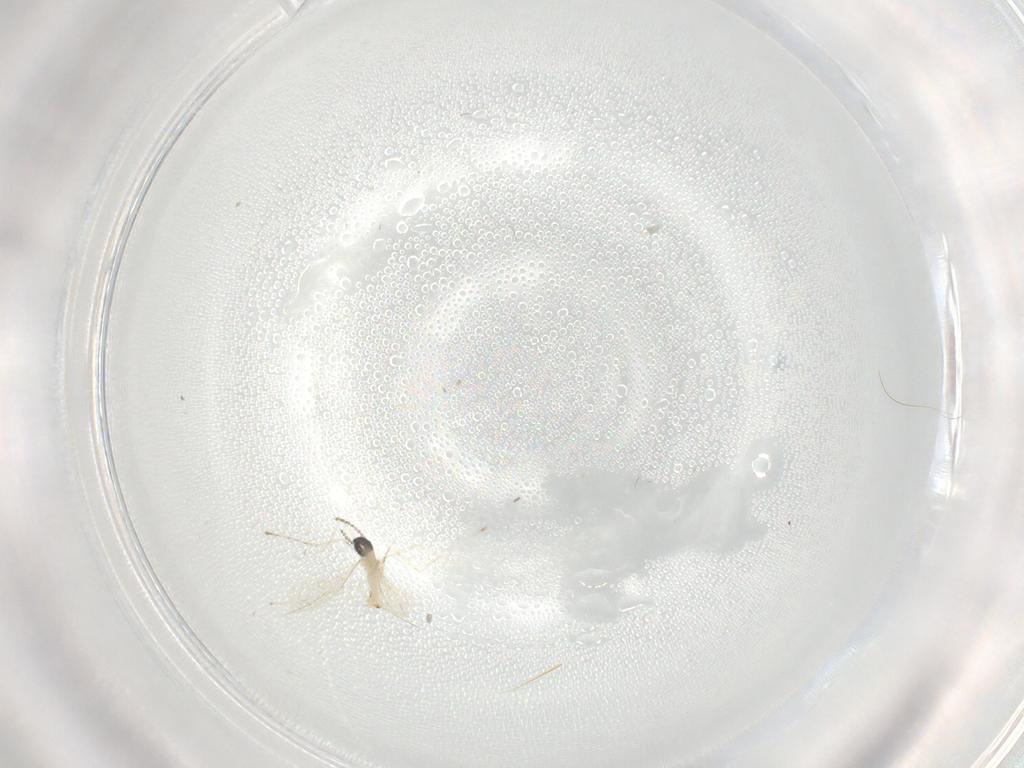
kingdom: Animalia
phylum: Arthropoda
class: Insecta
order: Diptera
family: Cecidomyiidae
